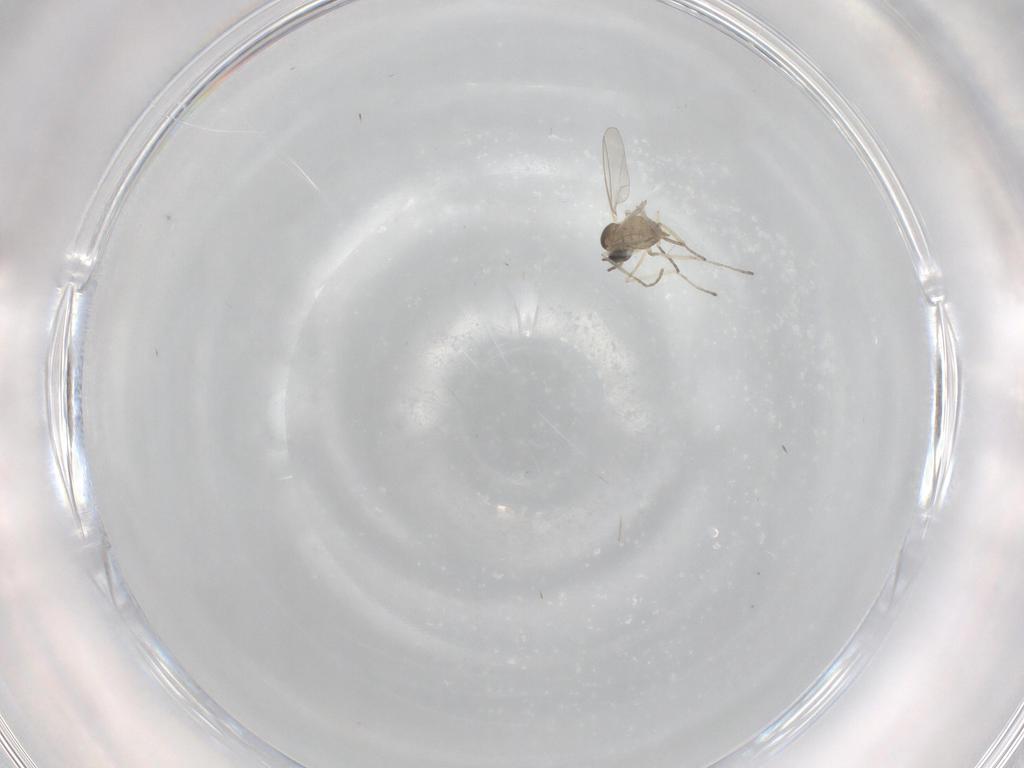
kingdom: Animalia
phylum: Arthropoda
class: Insecta
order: Diptera
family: Cecidomyiidae
